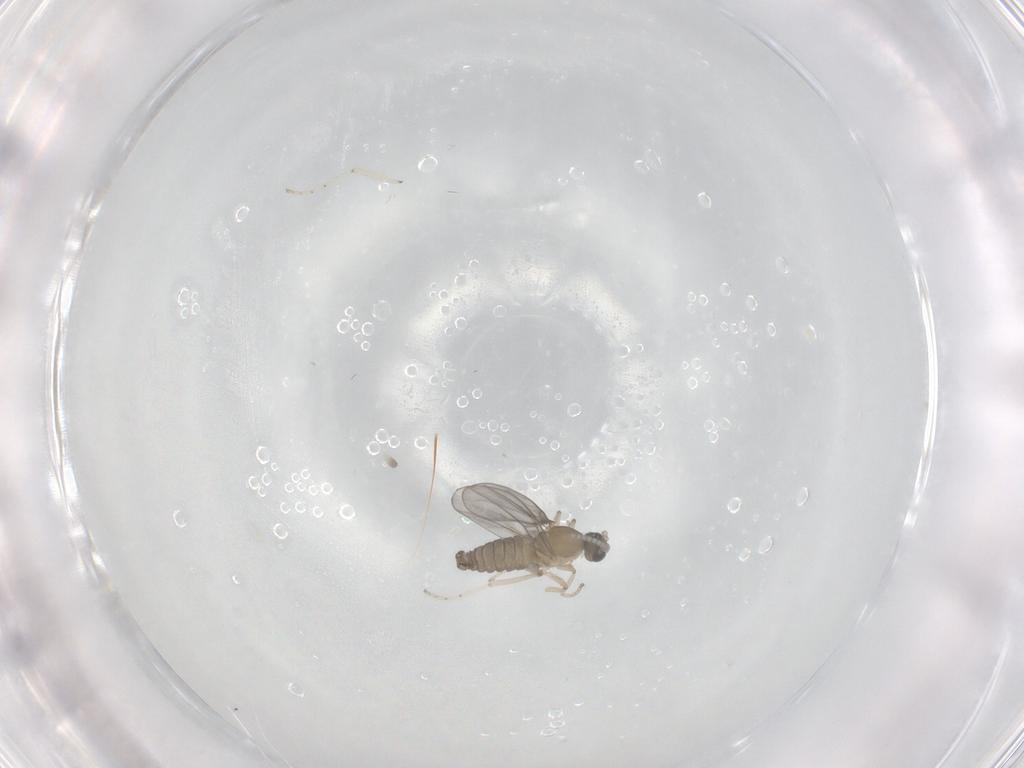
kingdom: Animalia
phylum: Arthropoda
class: Insecta
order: Diptera
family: Cecidomyiidae
